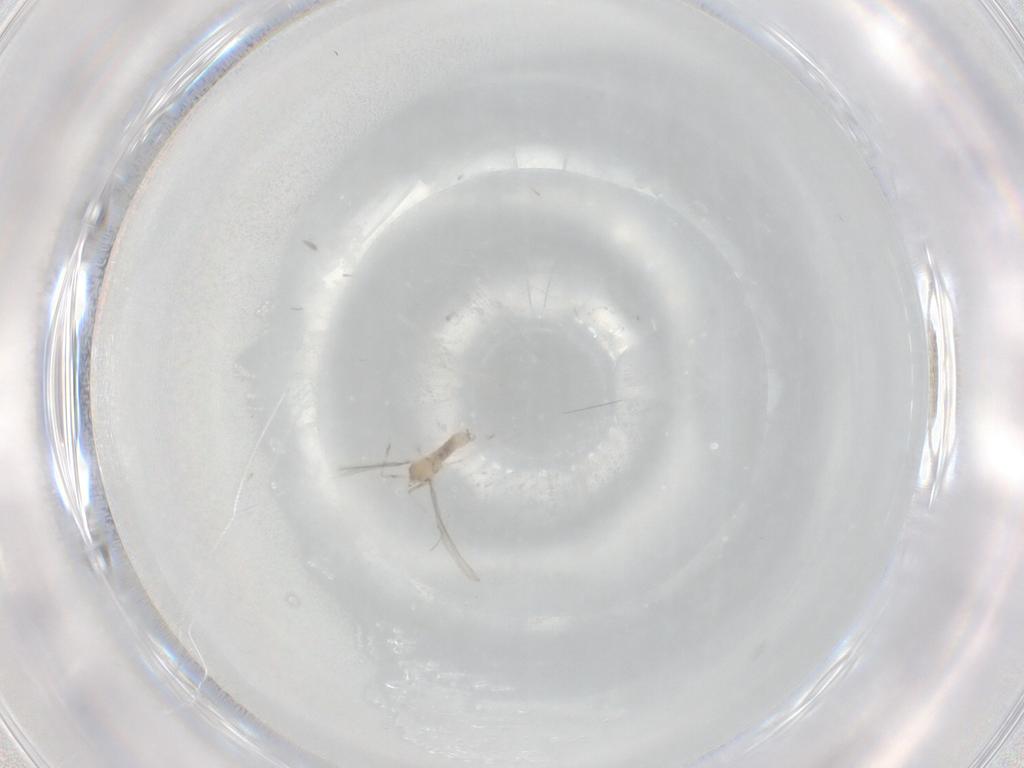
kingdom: Animalia
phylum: Arthropoda
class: Insecta
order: Diptera
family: Cecidomyiidae
